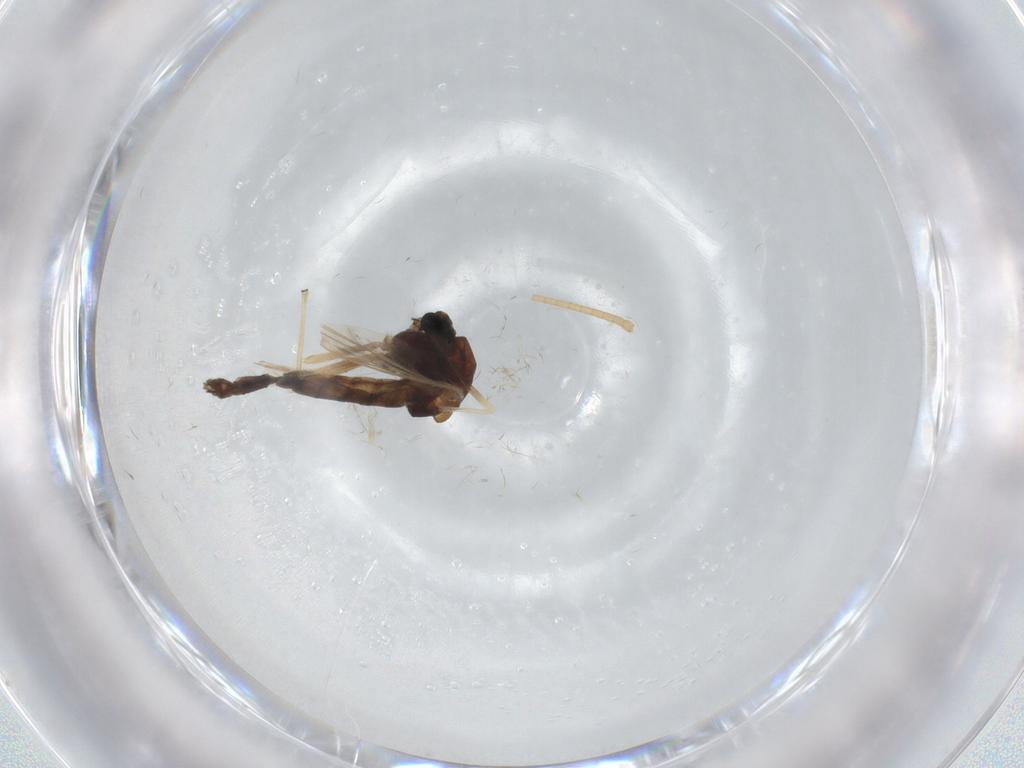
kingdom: Animalia
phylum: Arthropoda
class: Insecta
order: Diptera
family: Chironomidae
